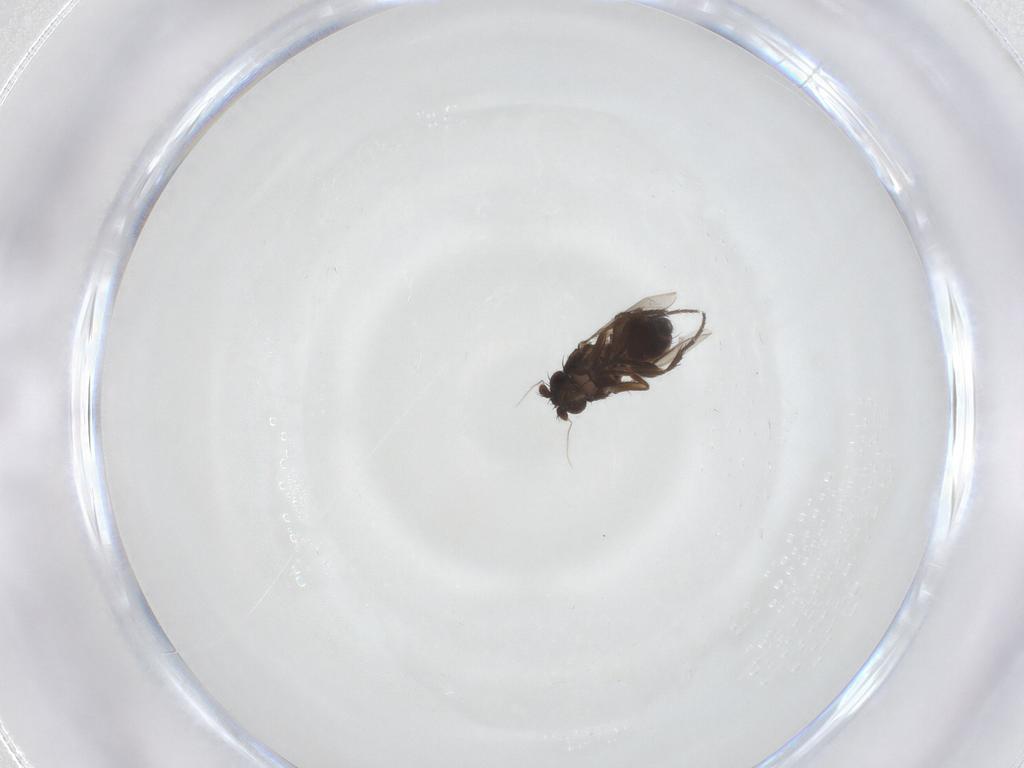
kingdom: Animalia
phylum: Arthropoda
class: Insecta
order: Diptera
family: Sphaeroceridae
